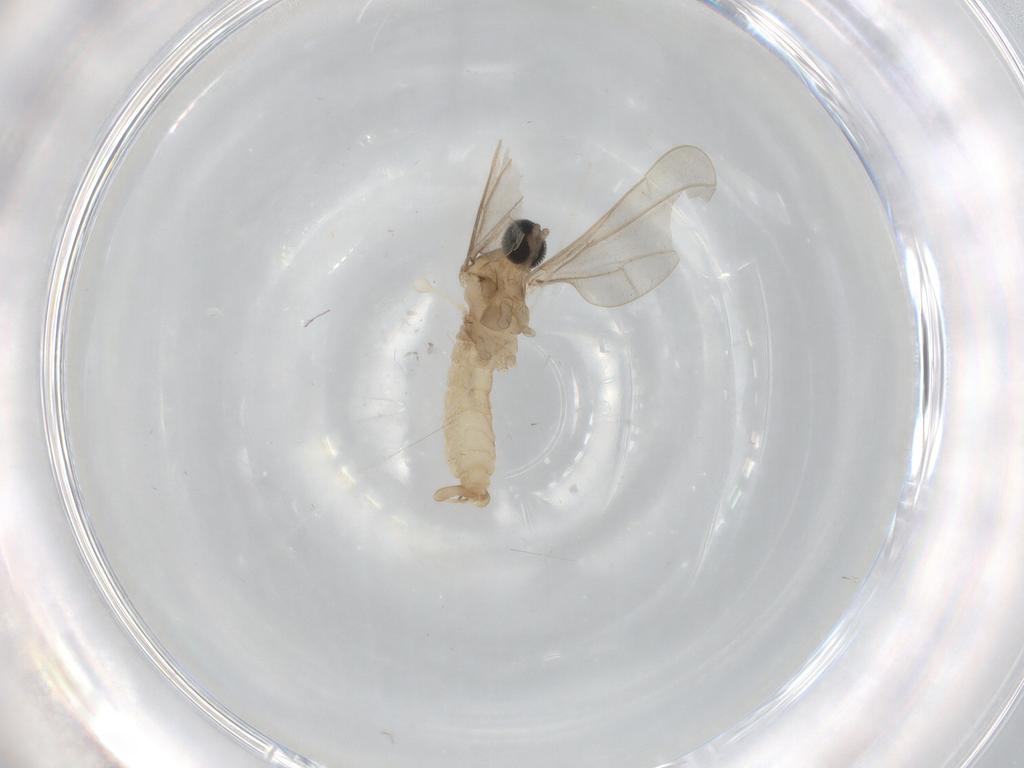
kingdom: Animalia
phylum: Arthropoda
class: Insecta
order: Diptera
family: Cecidomyiidae
